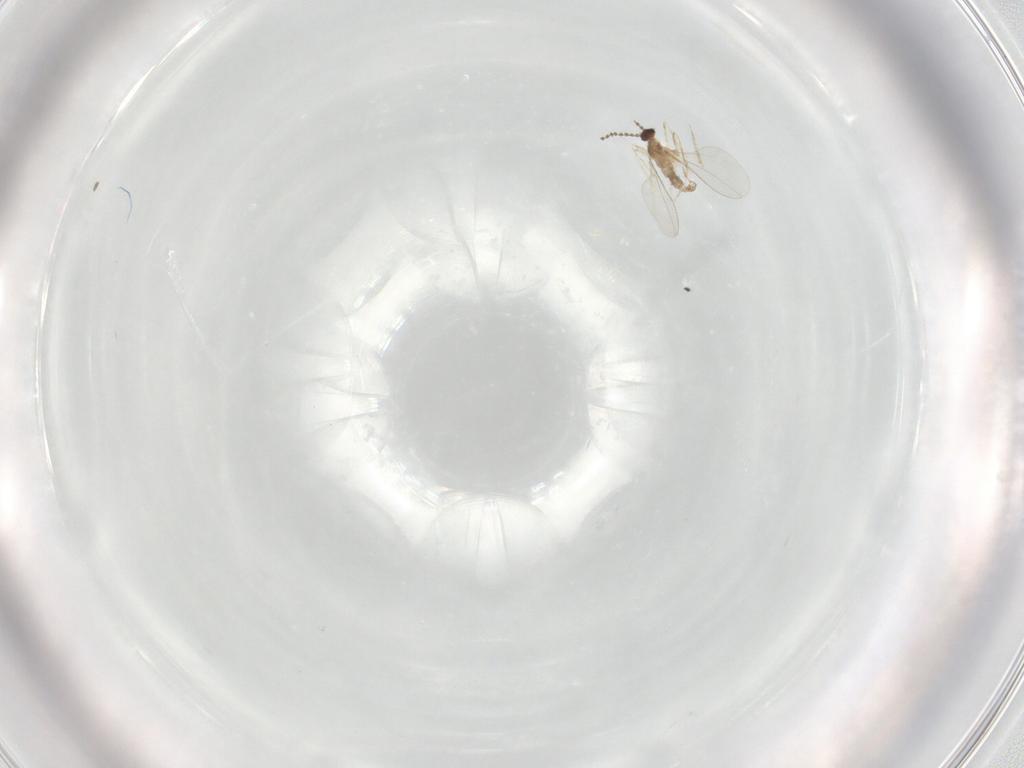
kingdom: Animalia
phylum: Arthropoda
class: Insecta
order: Diptera
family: Cecidomyiidae
